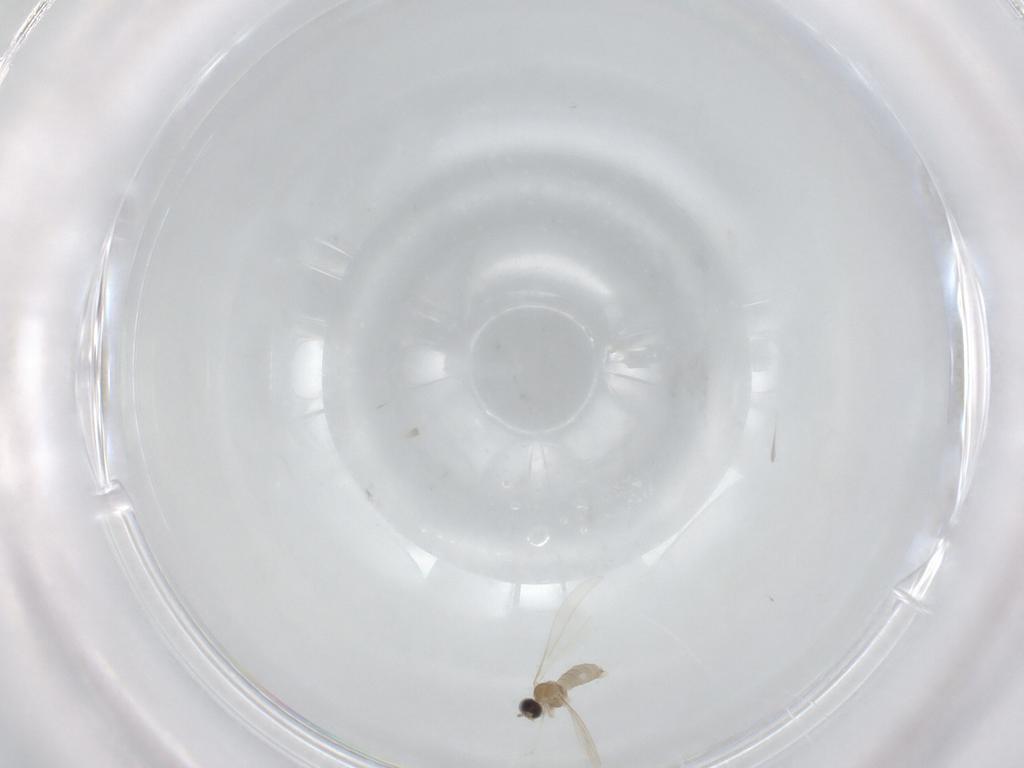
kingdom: Animalia
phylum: Arthropoda
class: Insecta
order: Diptera
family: Cecidomyiidae
